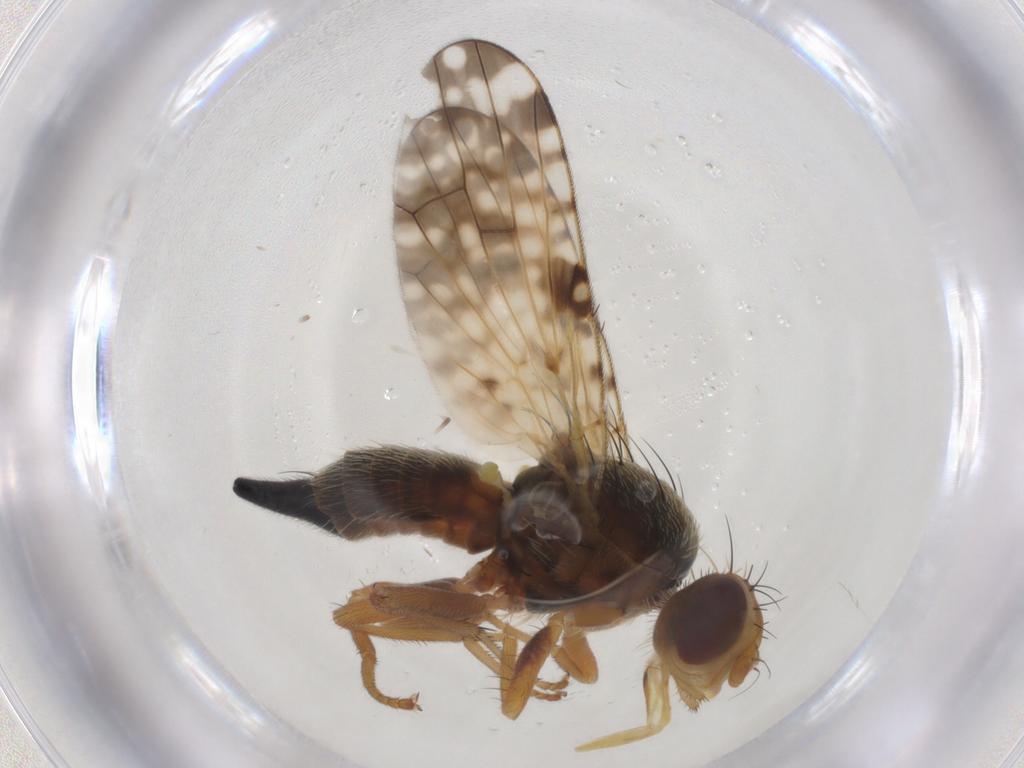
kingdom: Animalia
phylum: Arthropoda
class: Insecta
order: Diptera
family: Tephritidae
